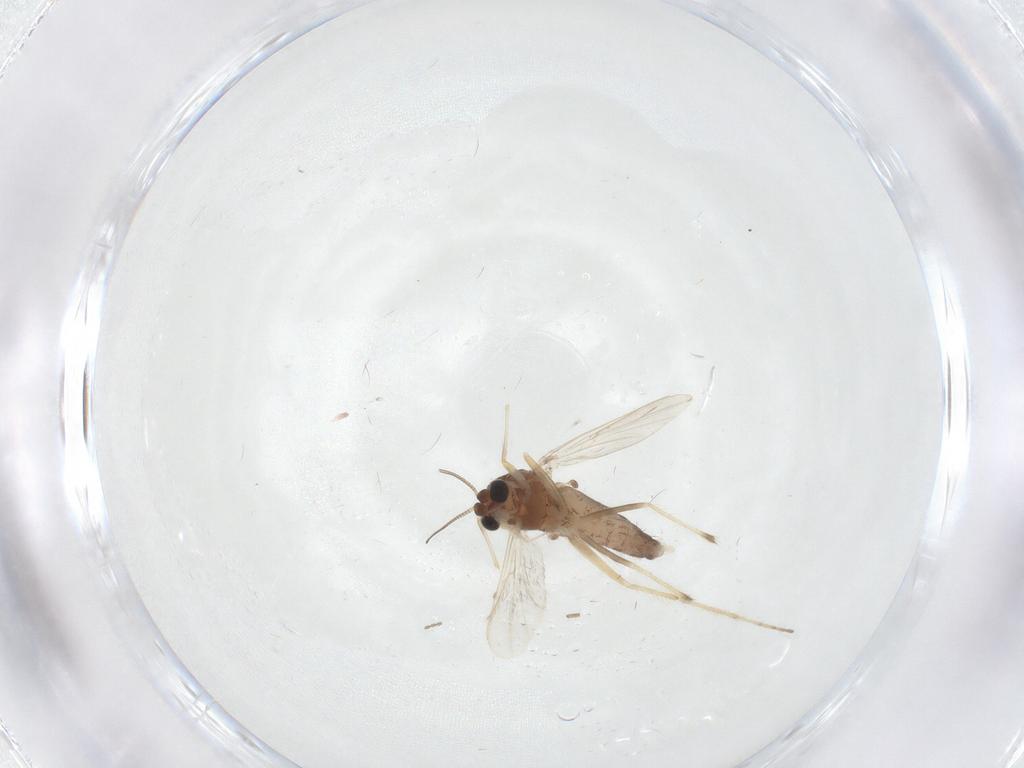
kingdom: Animalia
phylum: Arthropoda
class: Insecta
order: Diptera
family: Chironomidae
